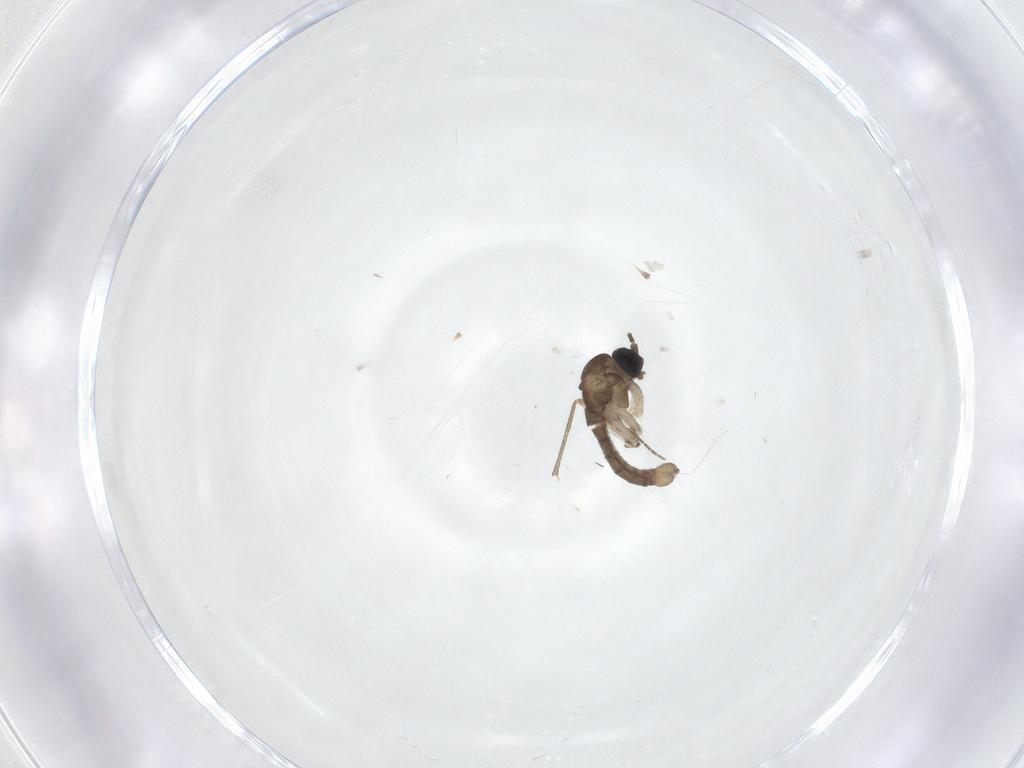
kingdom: Animalia
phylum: Arthropoda
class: Insecta
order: Diptera
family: Sciaridae
